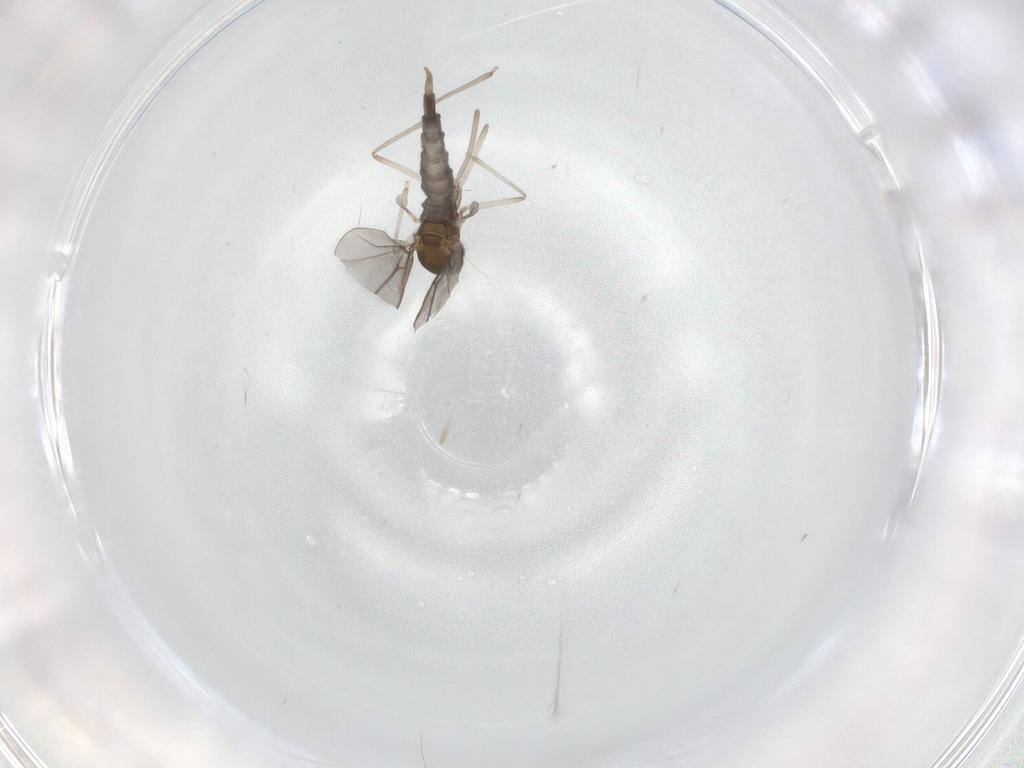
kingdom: Animalia
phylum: Arthropoda
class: Insecta
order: Diptera
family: Cecidomyiidae
